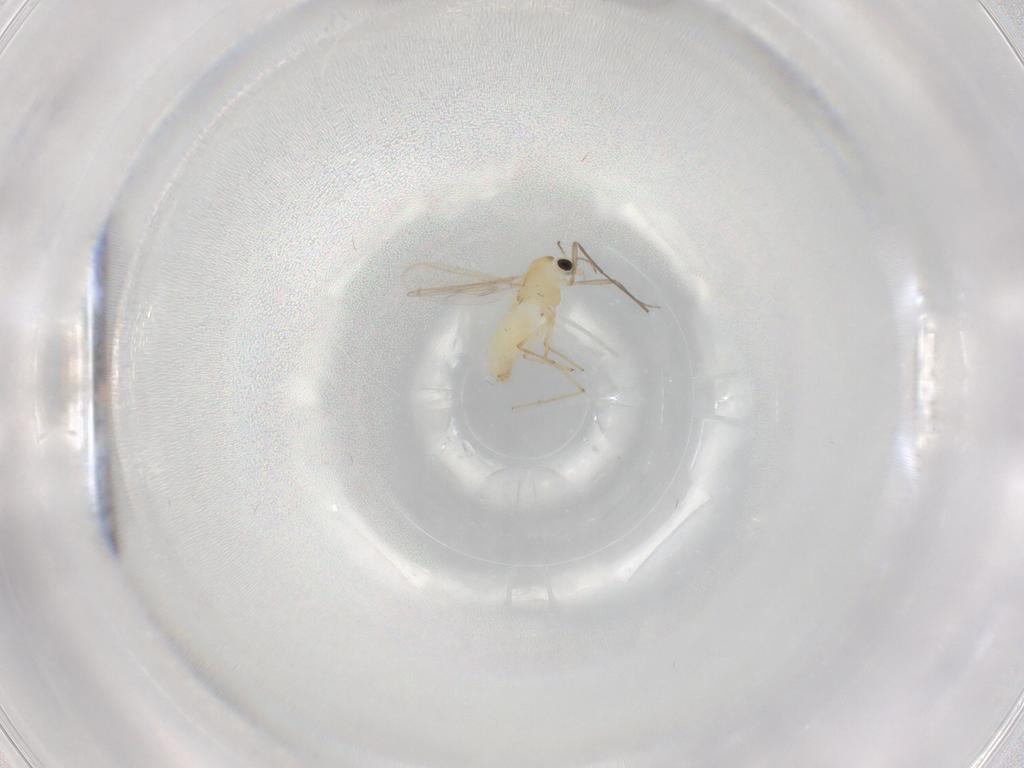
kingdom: Animalia
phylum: Arthropoda
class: Insecta
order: Diptera
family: Chironomidae
